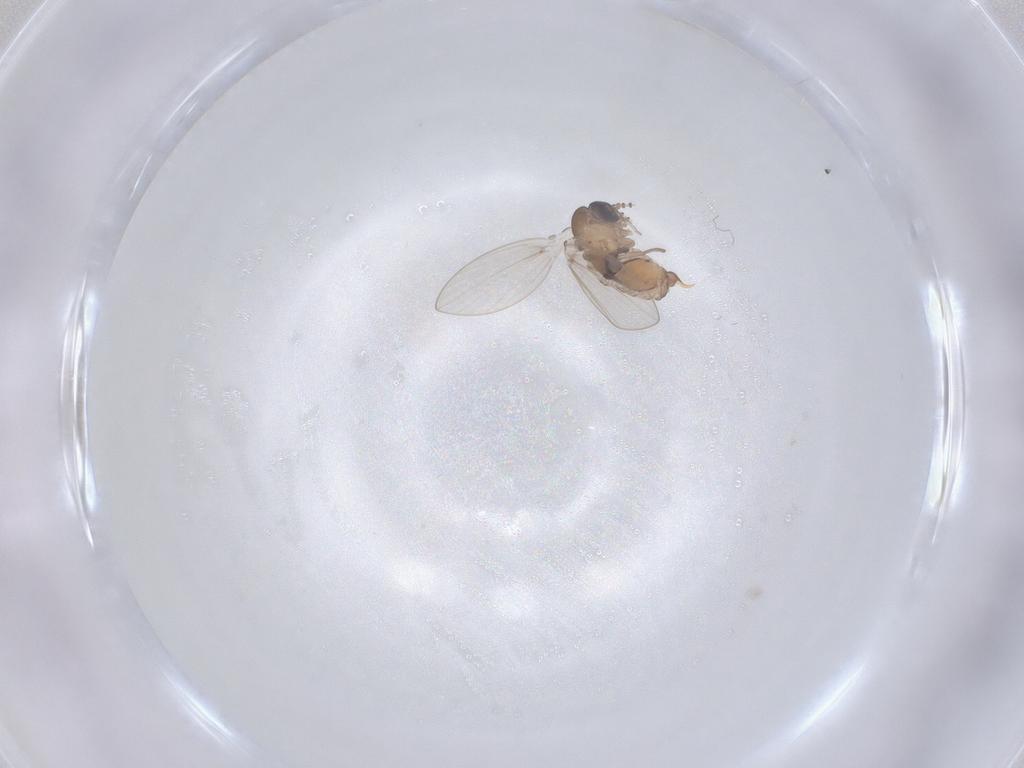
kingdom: Animalia
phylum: Arthropoda
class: Insecta
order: Diptera
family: Psychodidae
